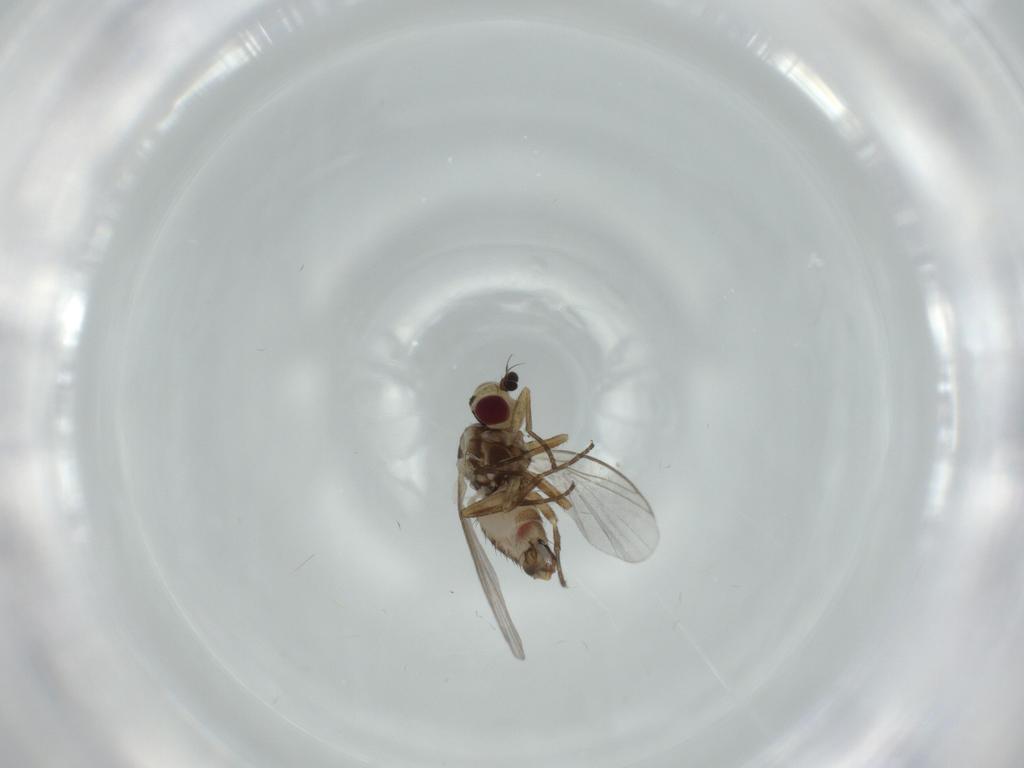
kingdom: Animalia
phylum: Arthropoda
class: Insecta
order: Diptera
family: Agromyzidae
